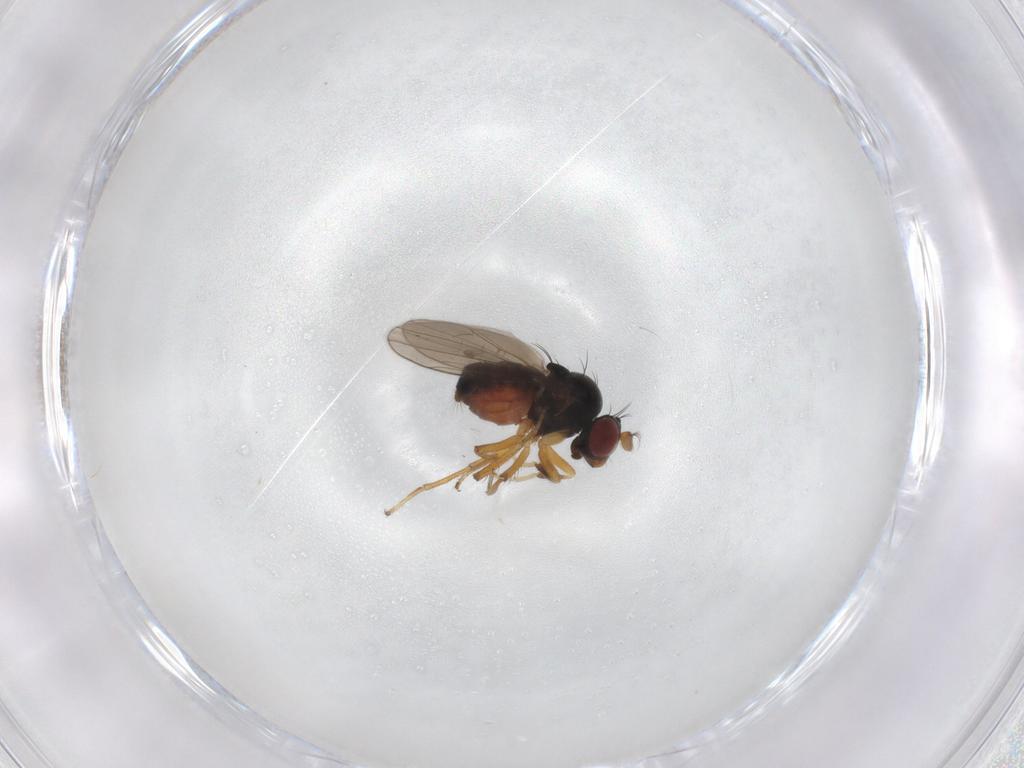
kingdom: Animalia
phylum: Arthropoda
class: Insecta
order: Diptera
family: Ephydridae
